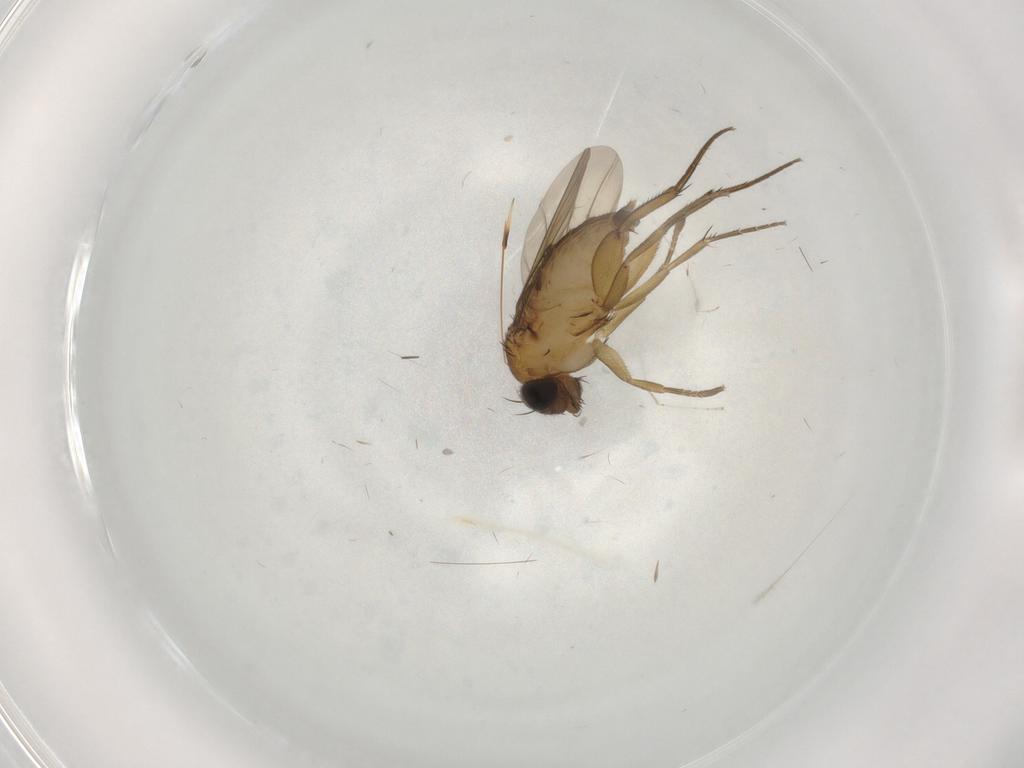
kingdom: Animalia
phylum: Arthropoda
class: Insecta
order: Diptera
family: Phoridae
